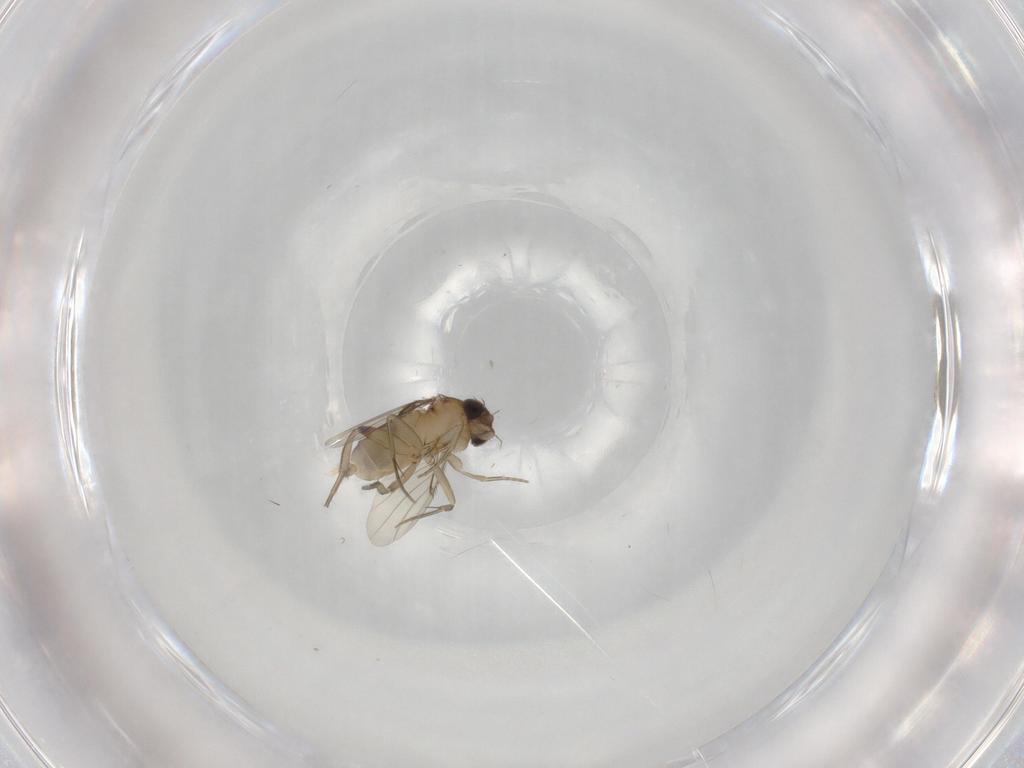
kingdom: Animalia
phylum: Arthropoda
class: Insecta
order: Diptera
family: Phoridae
